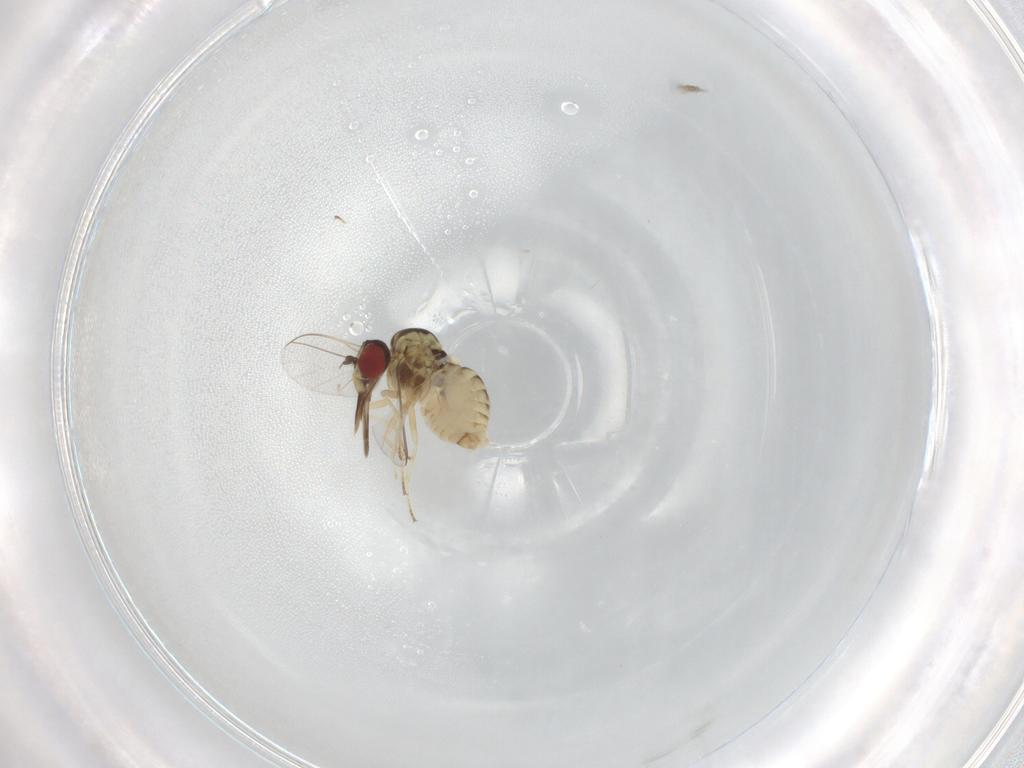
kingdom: Animalia
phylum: Arthropoda
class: Insecta
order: Diptera
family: Bombyliidae
